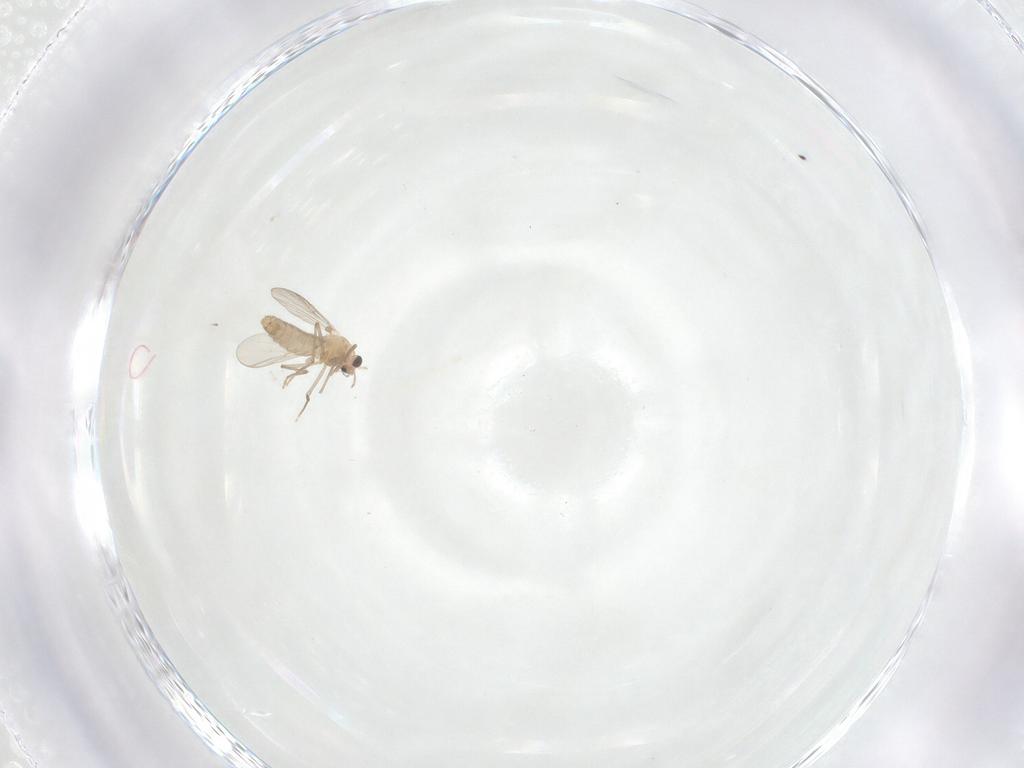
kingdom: Animalia
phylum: Arthropoda
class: Insecta
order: Diptera
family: Chironomidae
